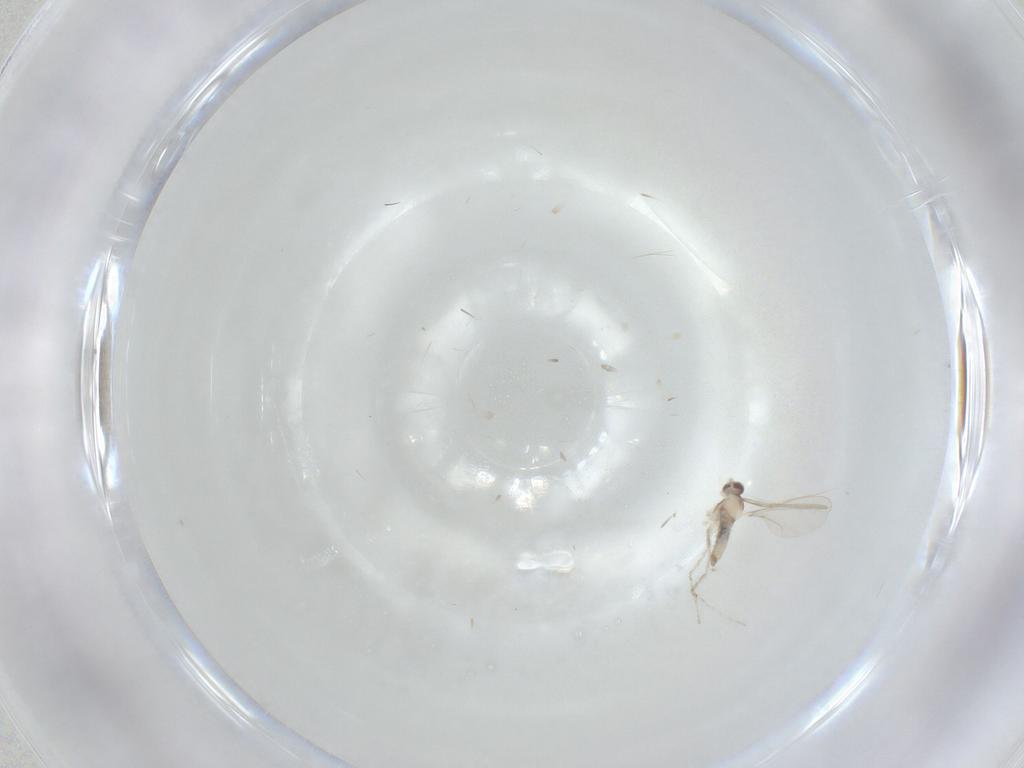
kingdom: Animalia
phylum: Arthropoda
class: Insecta
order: Diptera
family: Cecidomyiidae
